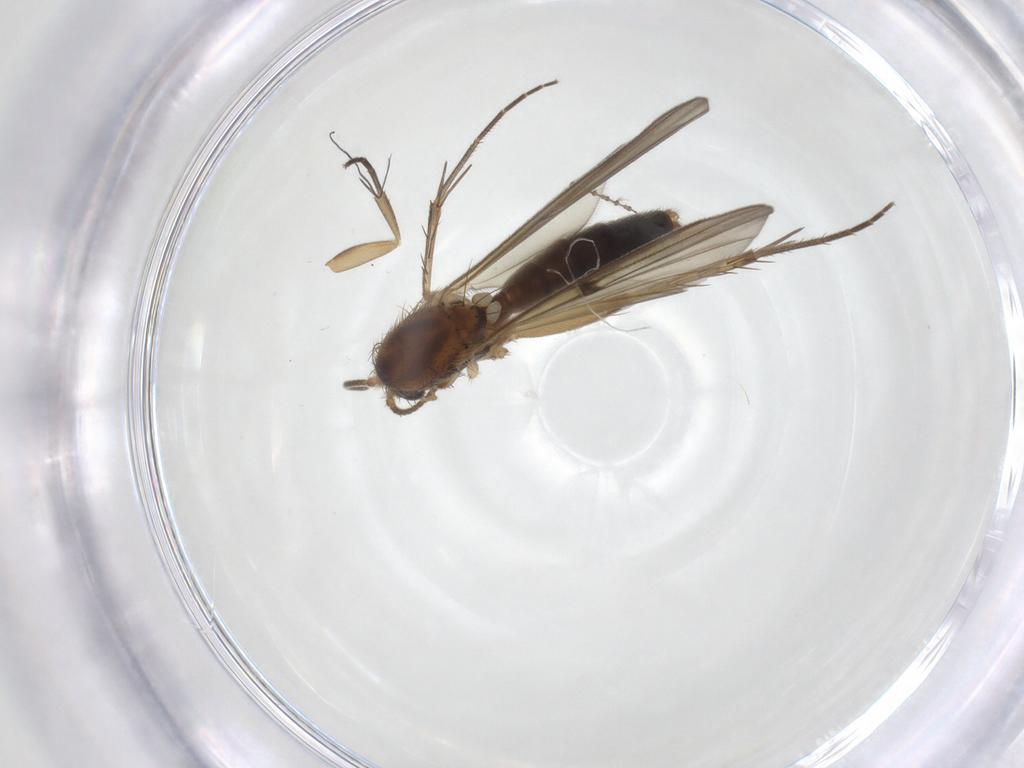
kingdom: Animalia
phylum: Arthropoda
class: Insecta
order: Diptera
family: Mycetophilidae
